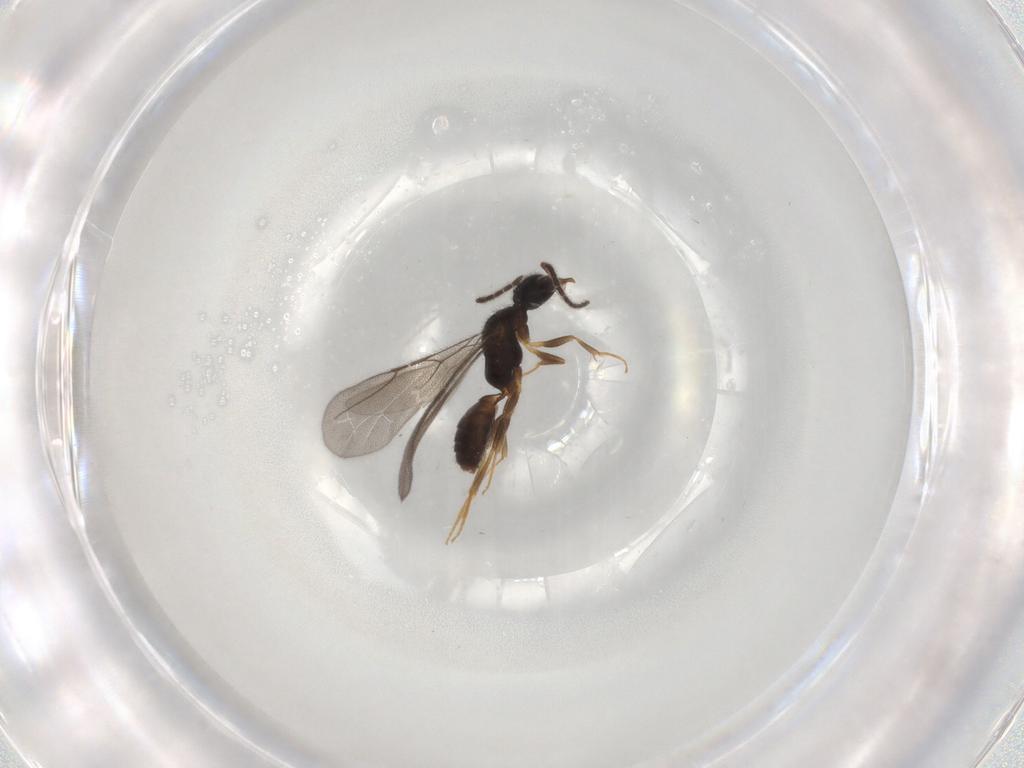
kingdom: Animalia
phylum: Arthropoda
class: Insecta
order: Hymenoptera
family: Bethylidae
